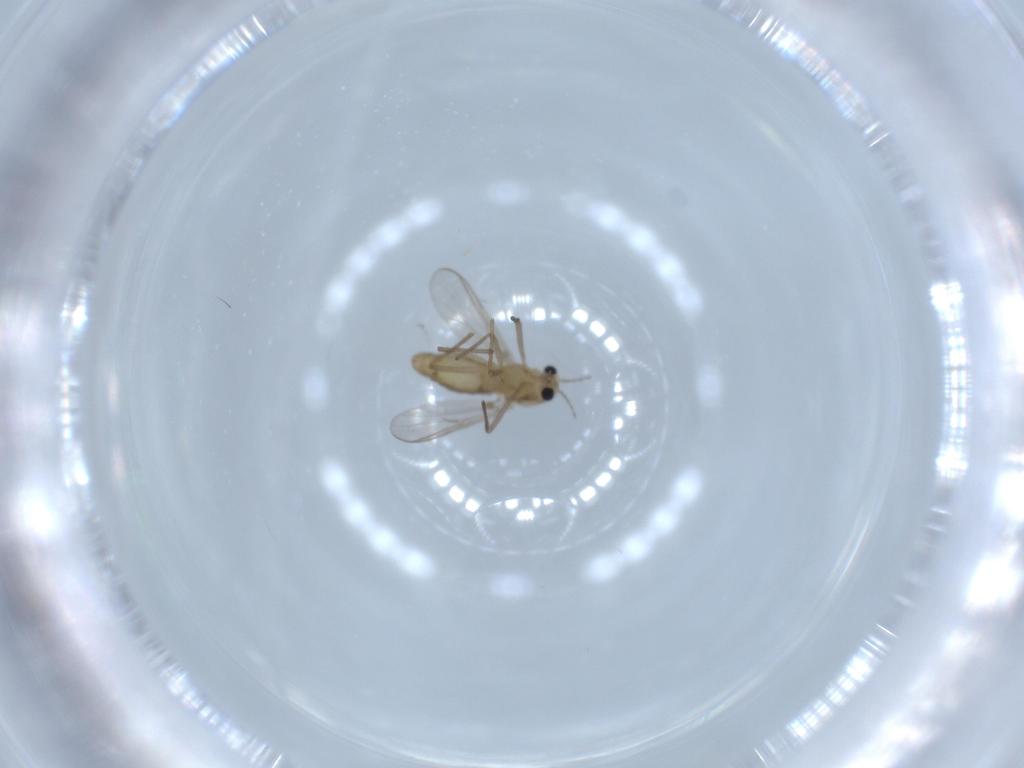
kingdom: Animalia
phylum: Arthropoda
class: Insecta
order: Diptera
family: Chironomidae
